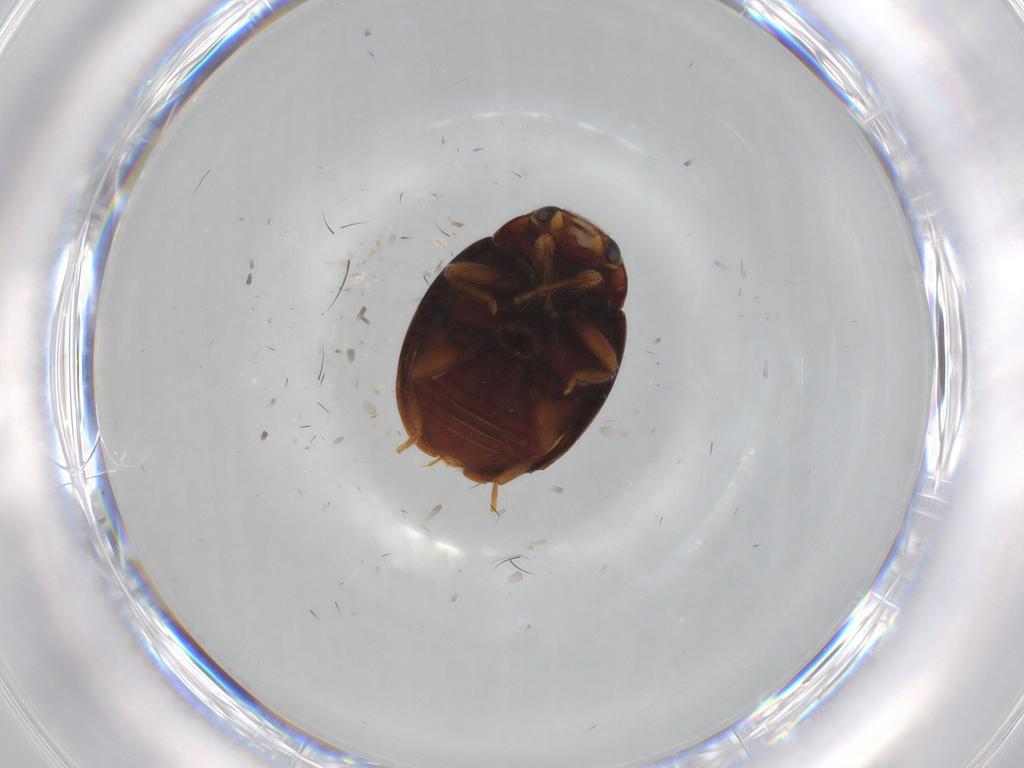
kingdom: Animalia
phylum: Arthropoda
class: Insecta
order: Coleoptera
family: Coccinellidae
